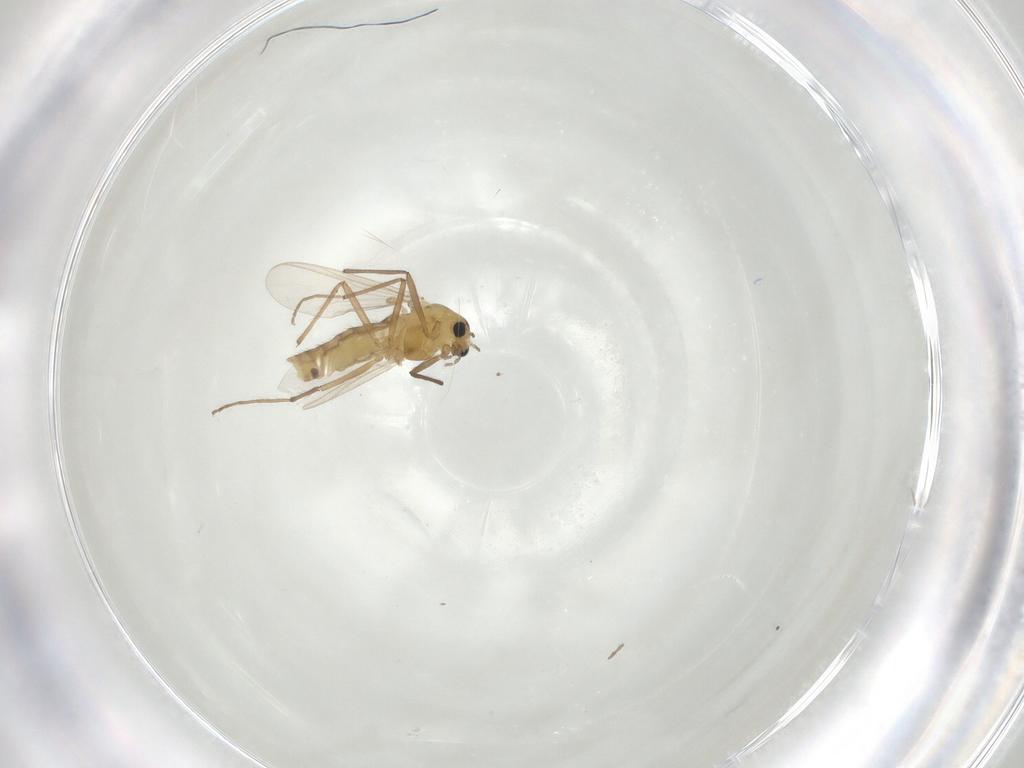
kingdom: Animalia
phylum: Arthropoda
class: Insecta
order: Diptera
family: Chironomidae
